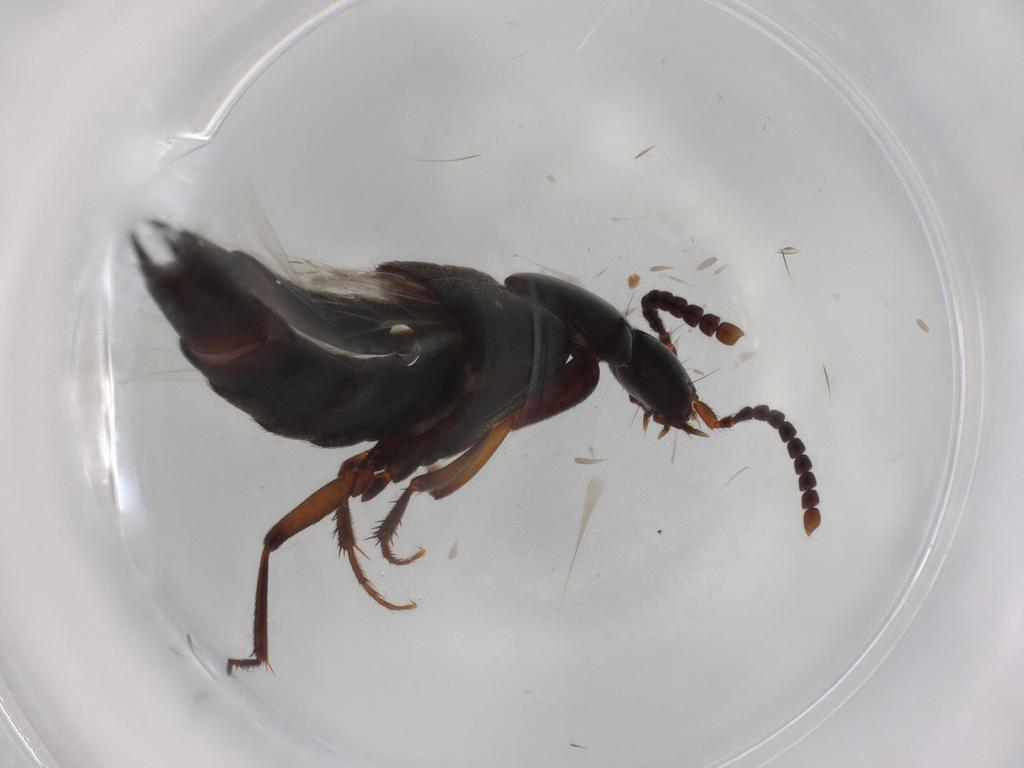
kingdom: Animalia
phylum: Arthropoda
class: Insecta
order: Coleoptera
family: Staphylinidae
